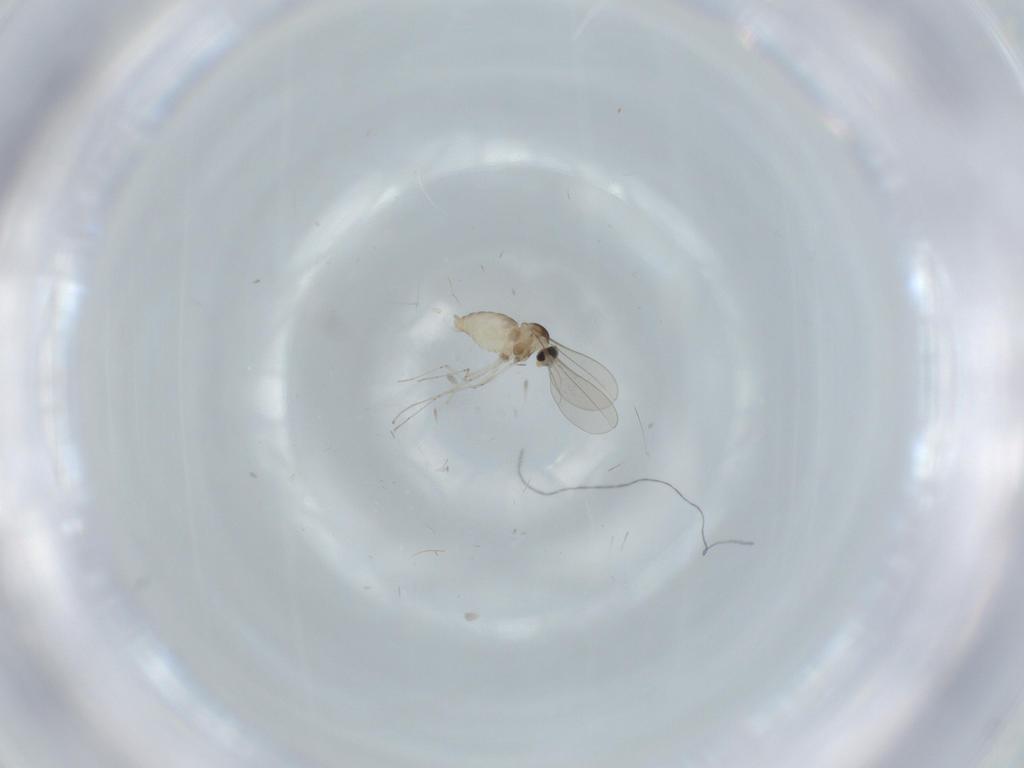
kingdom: Animalia
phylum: Arthropoda
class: Insecta
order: Diptera
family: Cecidomyiidae
